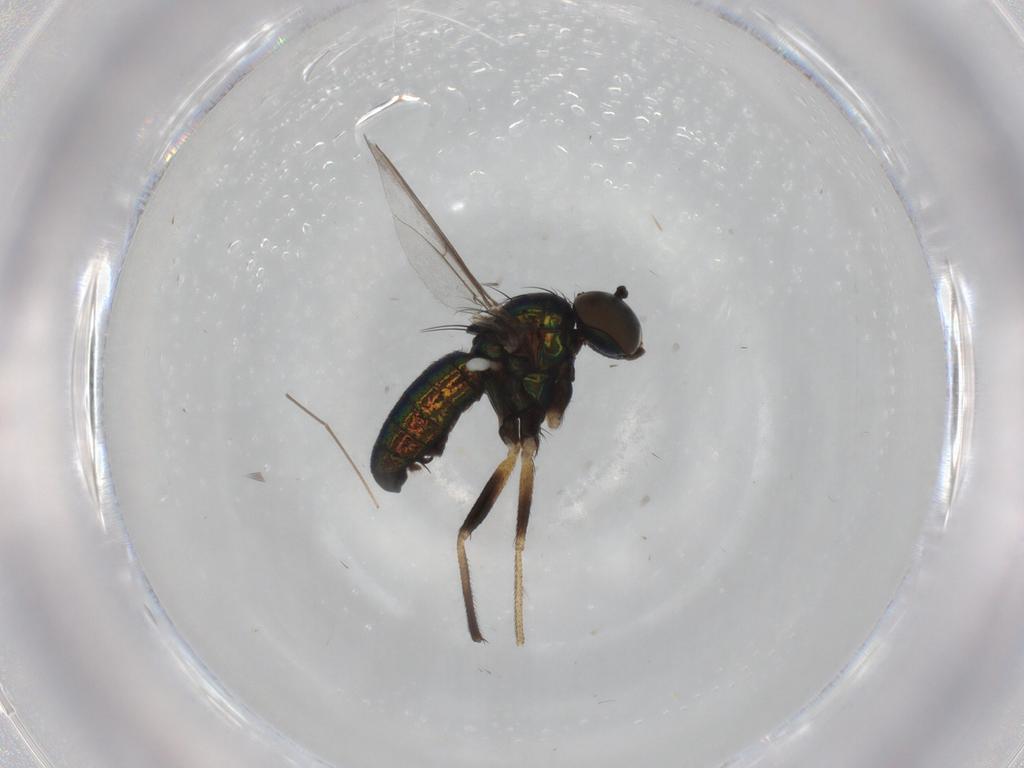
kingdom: Animalia
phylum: Arthropoda
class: Insecta
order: Diptera
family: Dolichopodidae
